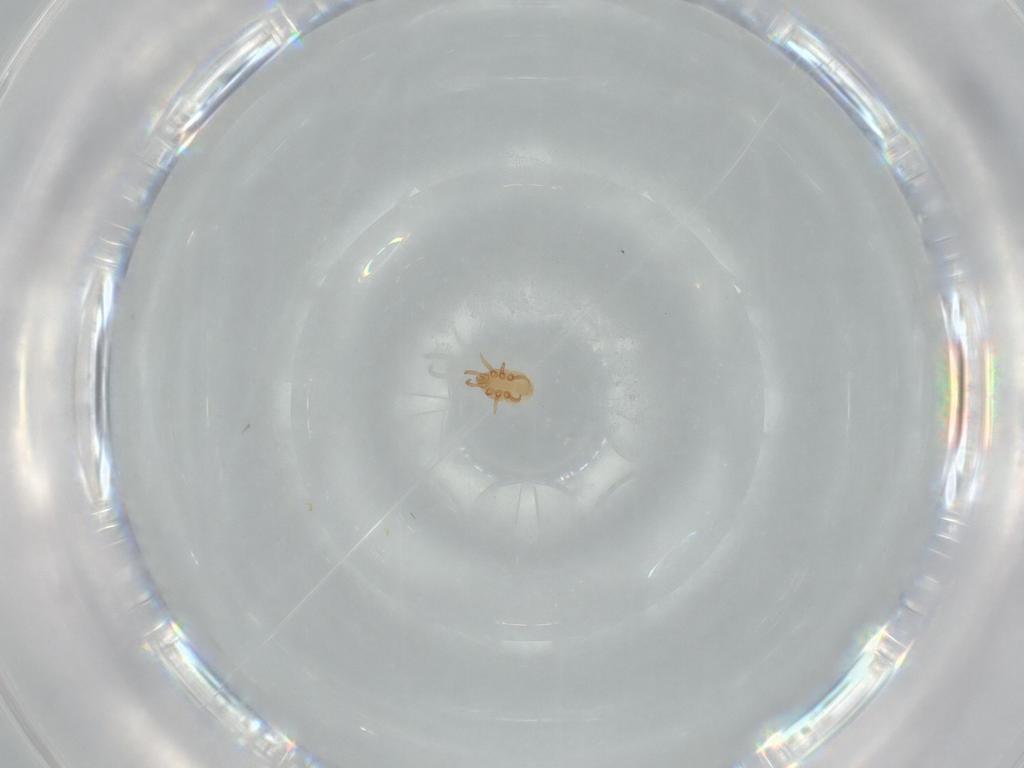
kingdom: Animalia
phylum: Arthropoda
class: Arachnida
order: Mesostigmata
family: Dinychidae
